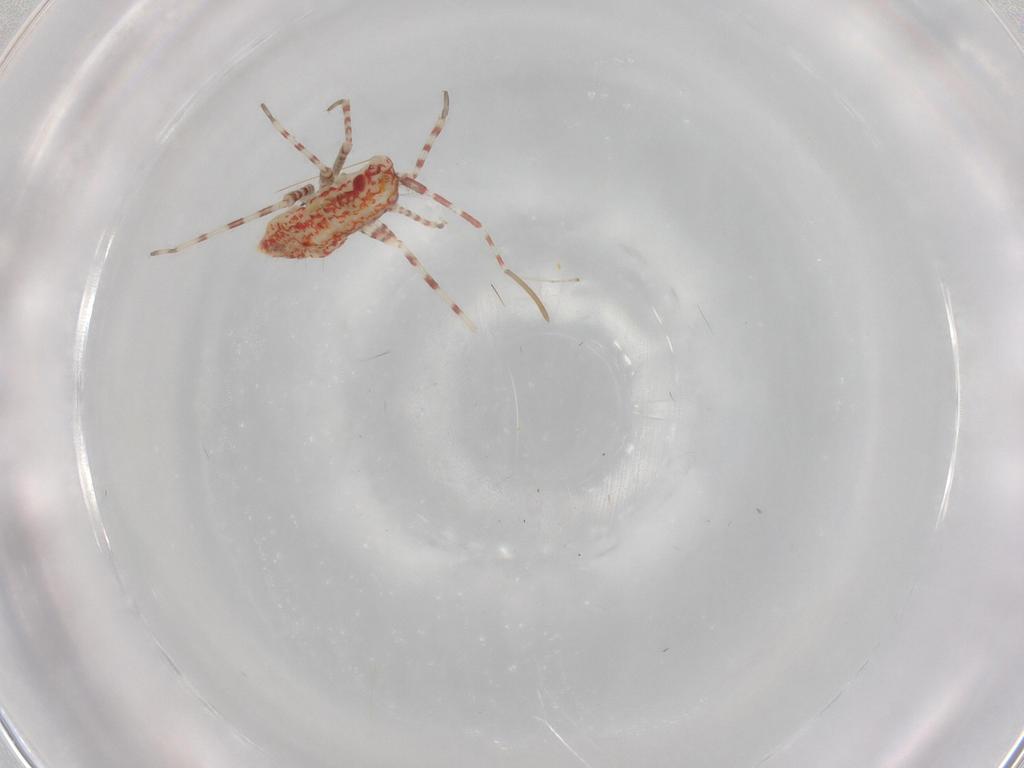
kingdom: Animalia
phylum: Arthropoda
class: Insecta
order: Hemiptera
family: Miridae
